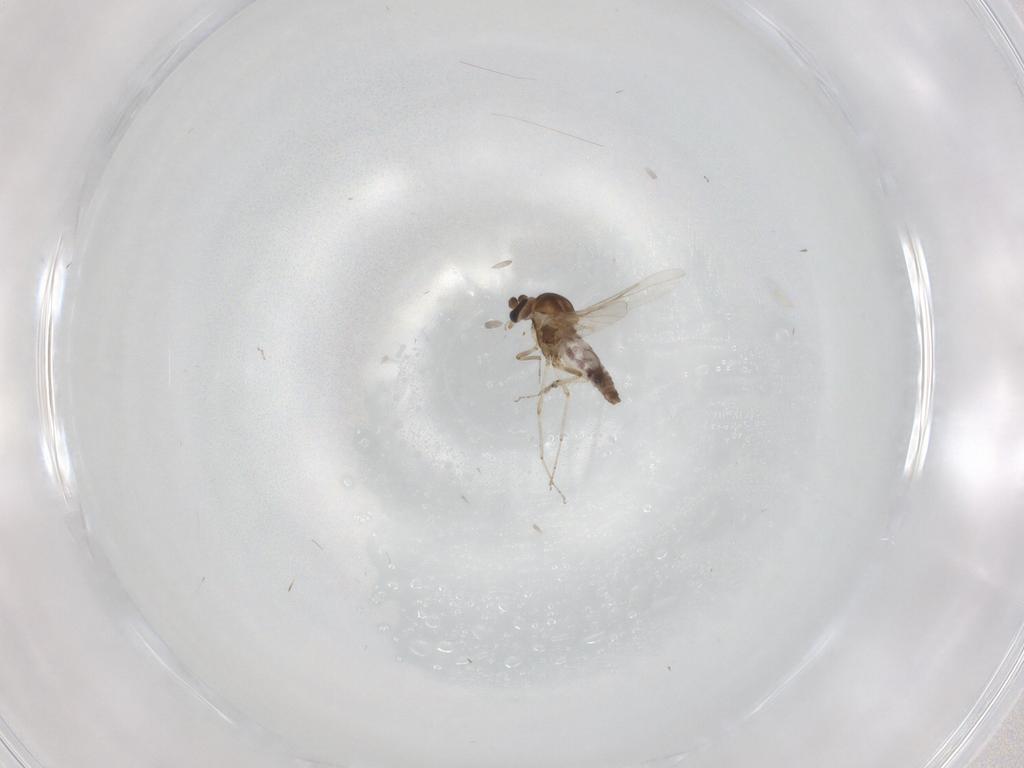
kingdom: Animalia
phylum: Arthropoda
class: Insecta
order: Diptera
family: Ceratopogonidae
